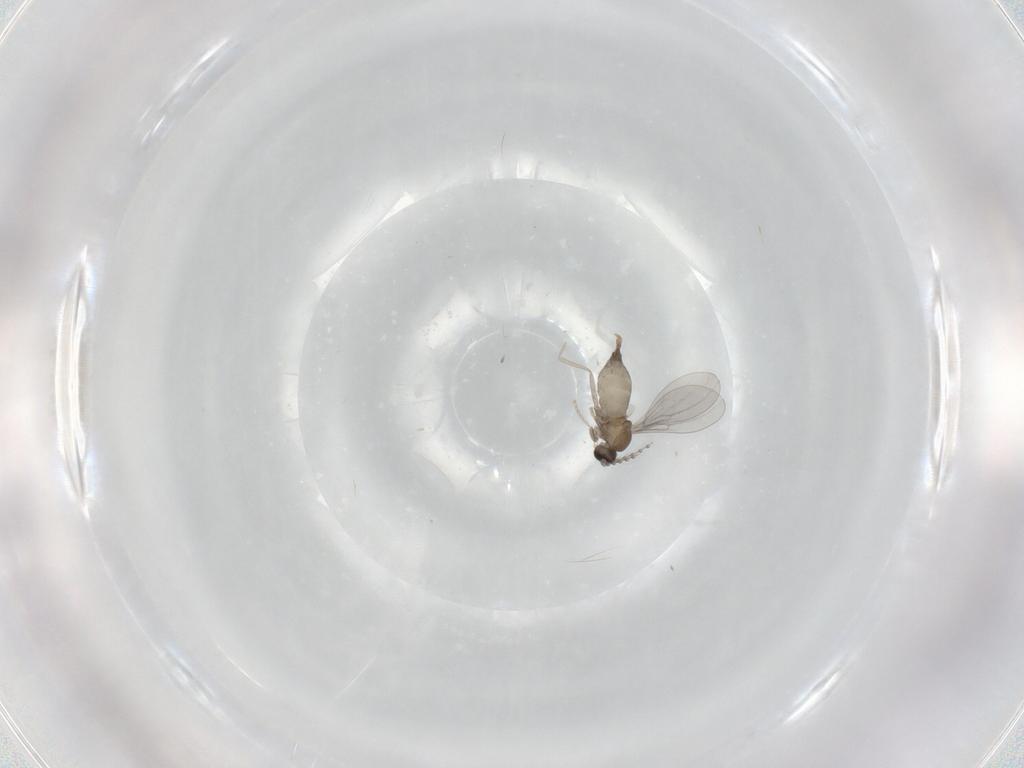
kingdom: Animalia
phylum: Arthropoda
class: Insecta
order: Diptera
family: Cecidomyiidae
